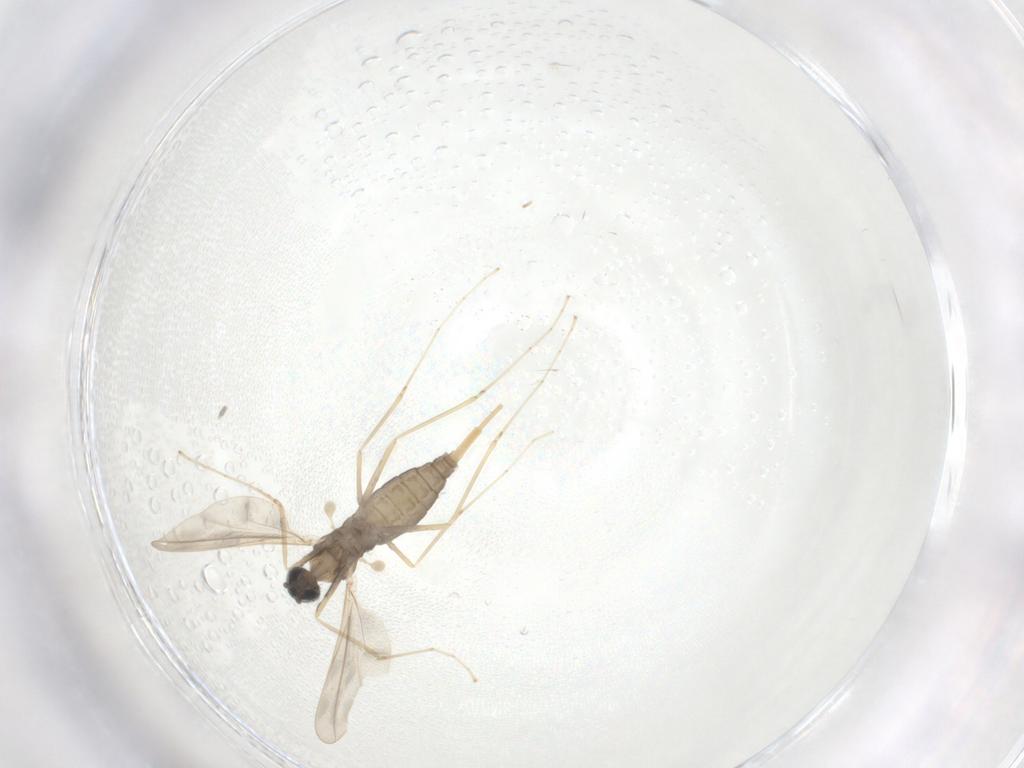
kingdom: Animalia
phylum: Arthropoda
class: Insecta
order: Diptera
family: Cecidomyiidae
